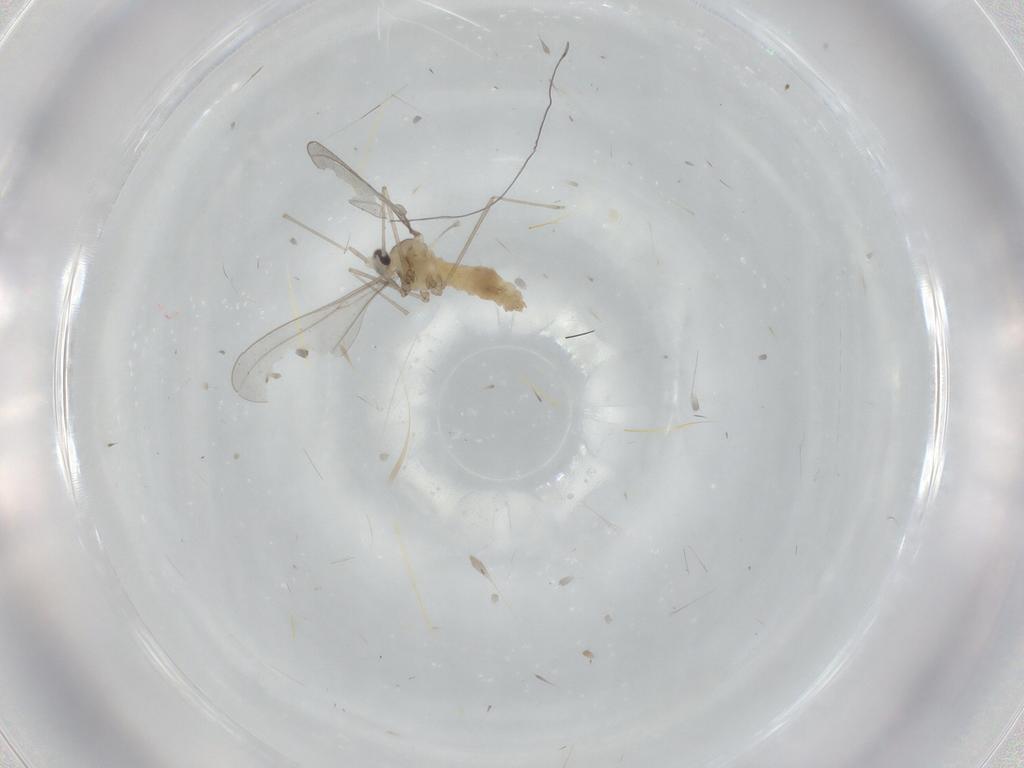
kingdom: Animalia
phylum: Arthropoda
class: Insecta
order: Diptera
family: Cecidomyiidae
